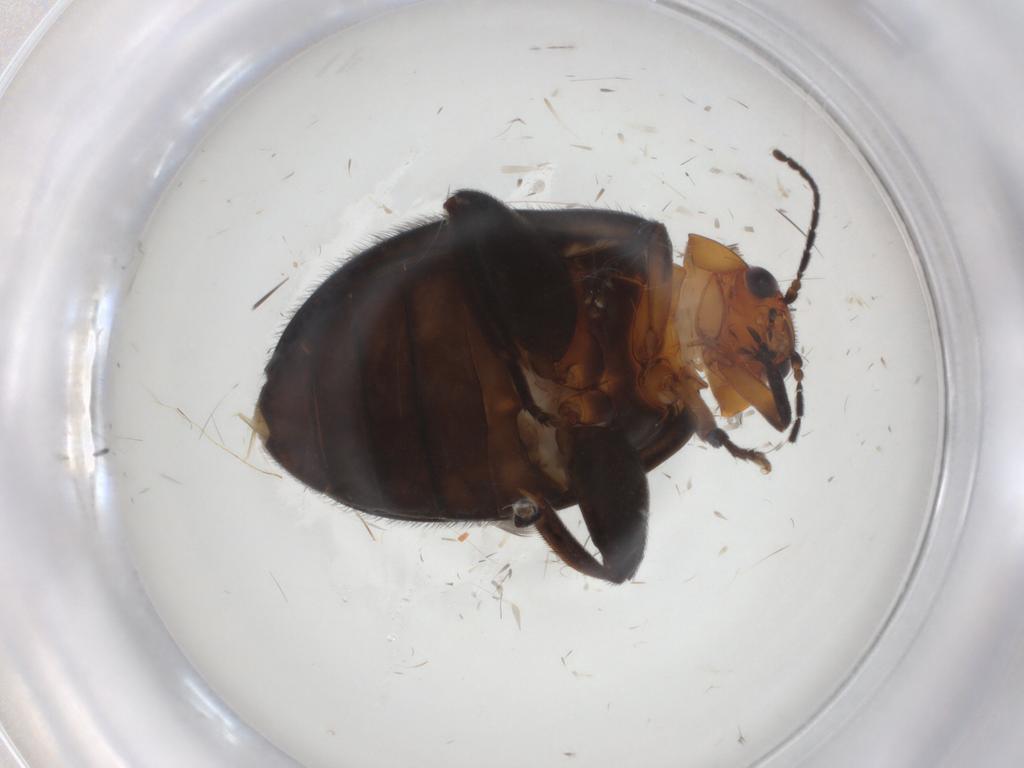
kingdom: Animalia
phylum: Arthropoda
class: Insecta
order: Coleoptera
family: Scirtidae
